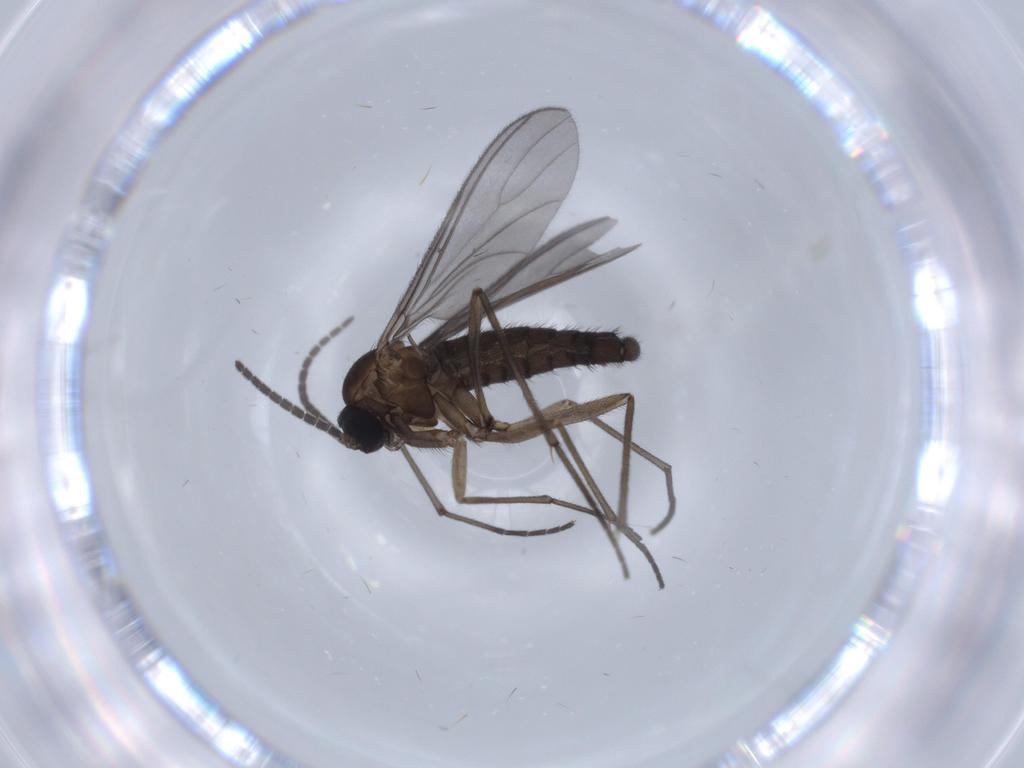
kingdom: Animalia
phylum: Arthropoda
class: Insecta
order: Diptera
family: Sciaridae
